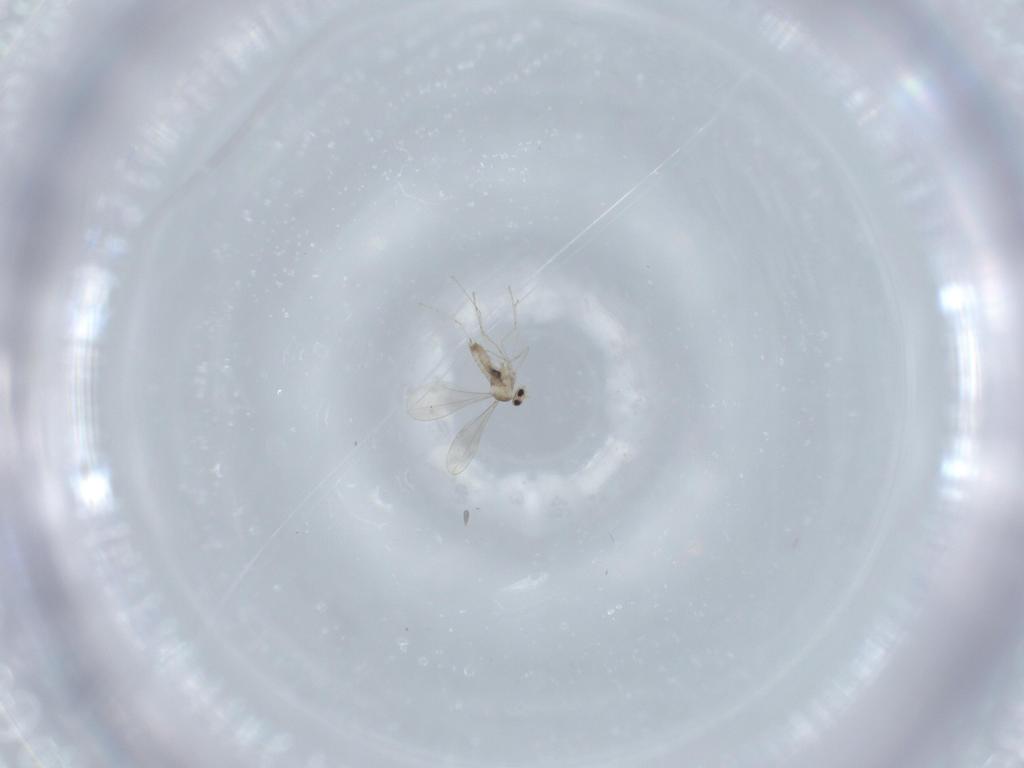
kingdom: Animalia
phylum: Arthropoda
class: Insecta
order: Diptera
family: Cecidomyiidae
